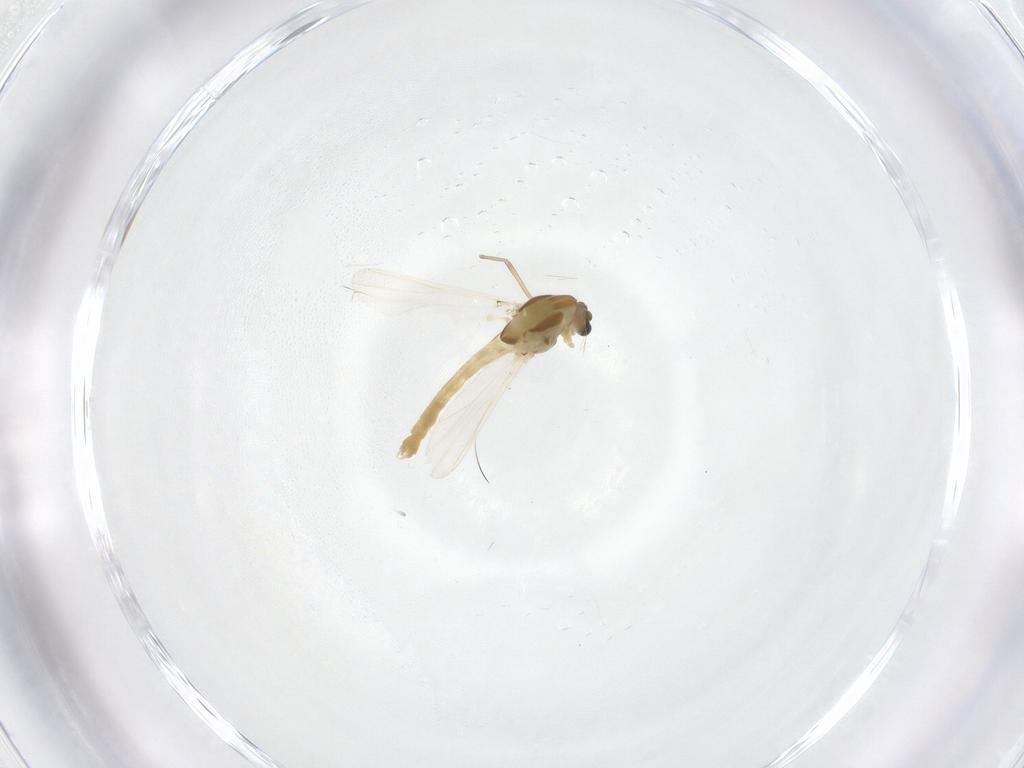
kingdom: Animalia
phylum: Arthropoda
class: Insecta
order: Diptera
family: Chironomidae
